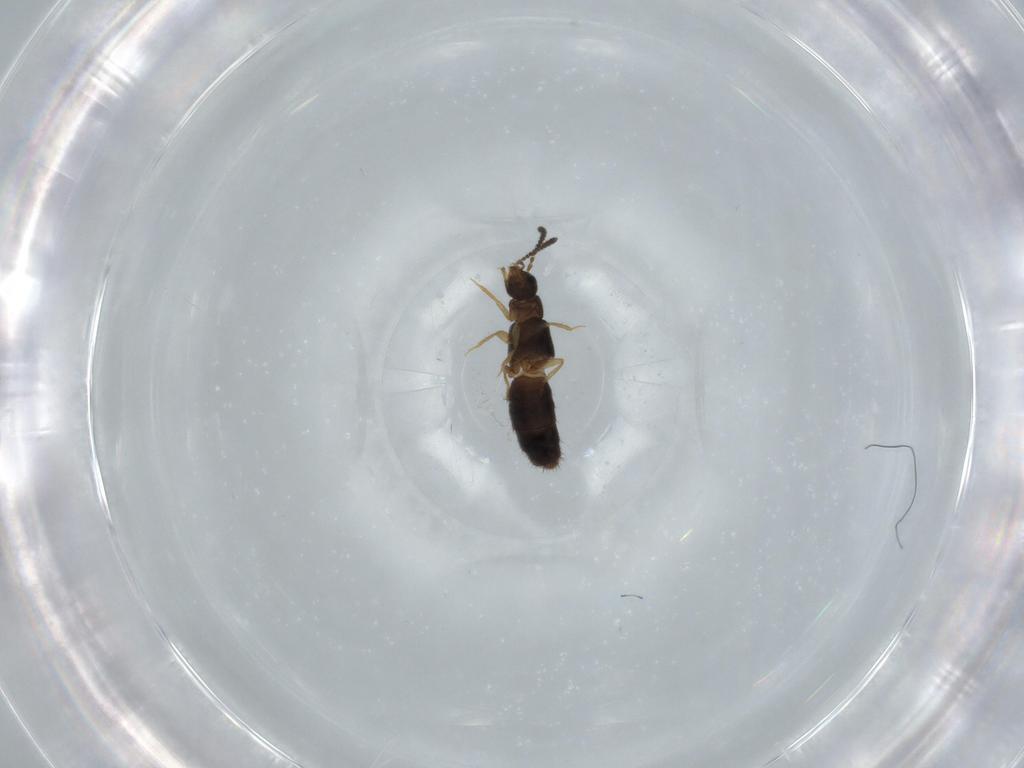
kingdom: Animalia
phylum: Arthropoda
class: Insecta
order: Coleoptera
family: Staphylinidae
